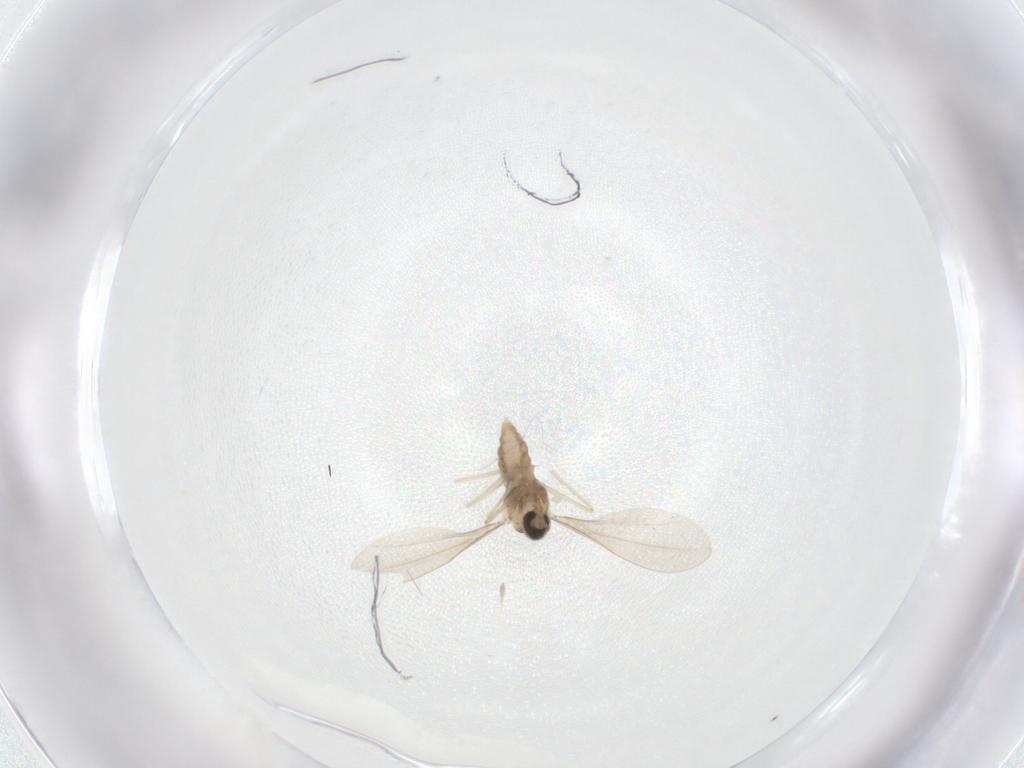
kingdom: Animalia
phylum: Arthropoda
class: Insecta
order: Diptera
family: Cecidomyiidae
